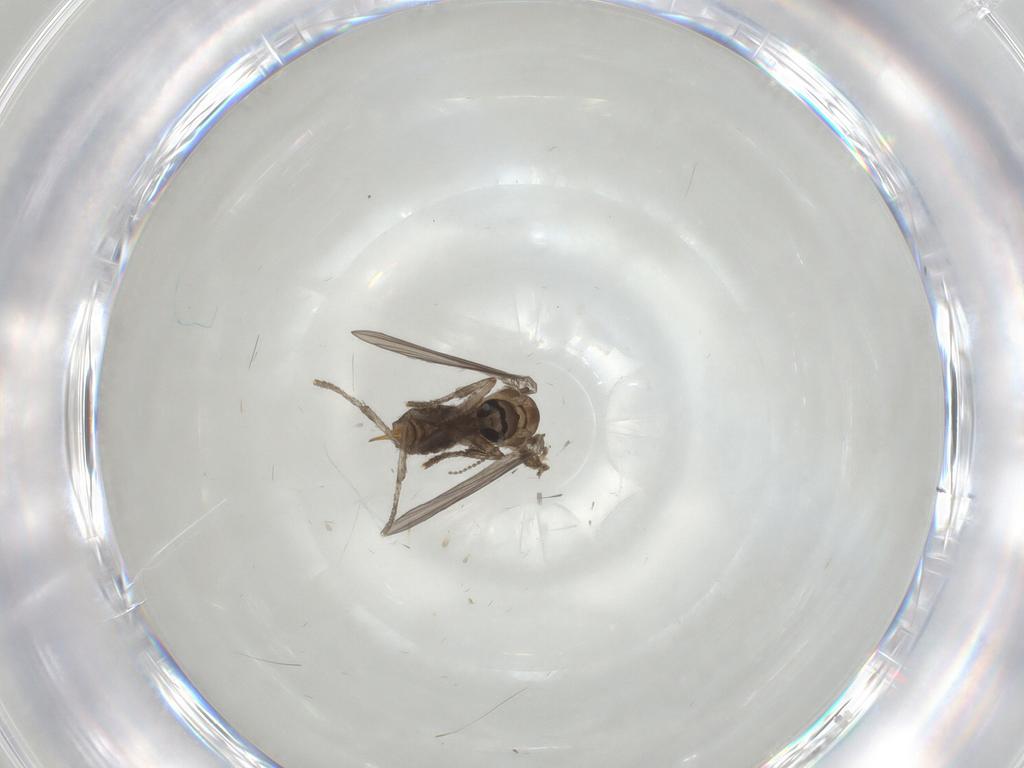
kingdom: Animalia
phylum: Arthropoda
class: Insecta
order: Diptera
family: Psychodidae
